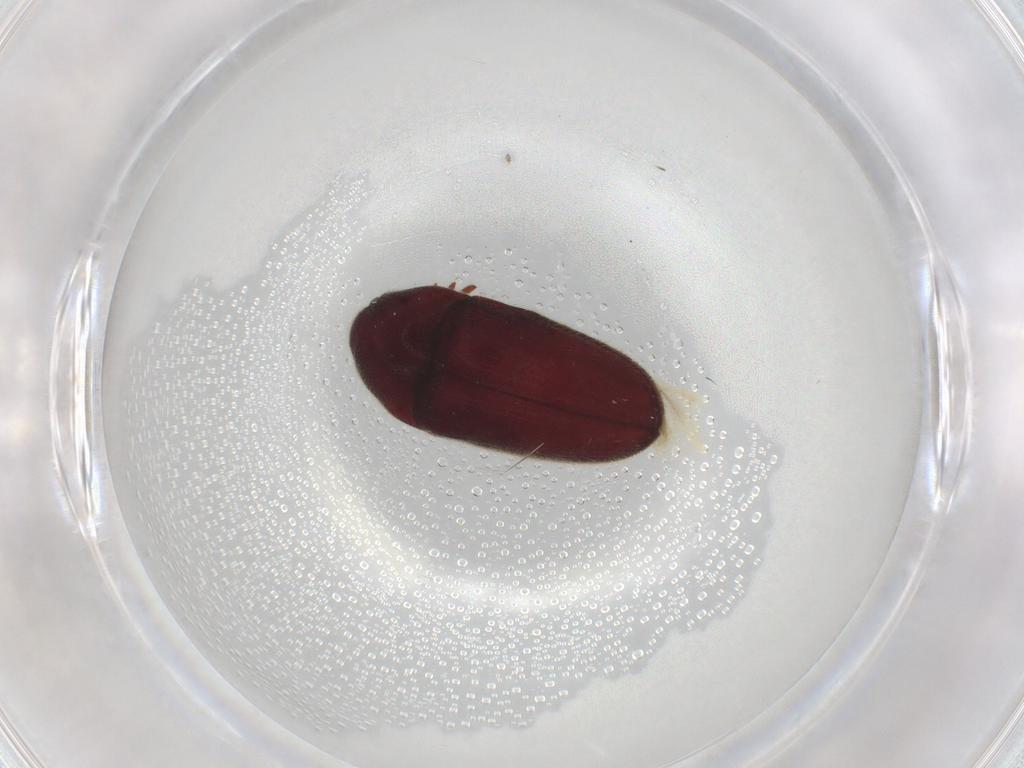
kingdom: Animalia
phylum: Arthropoda
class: Insecta
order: Coleoptera
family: Throscidae
